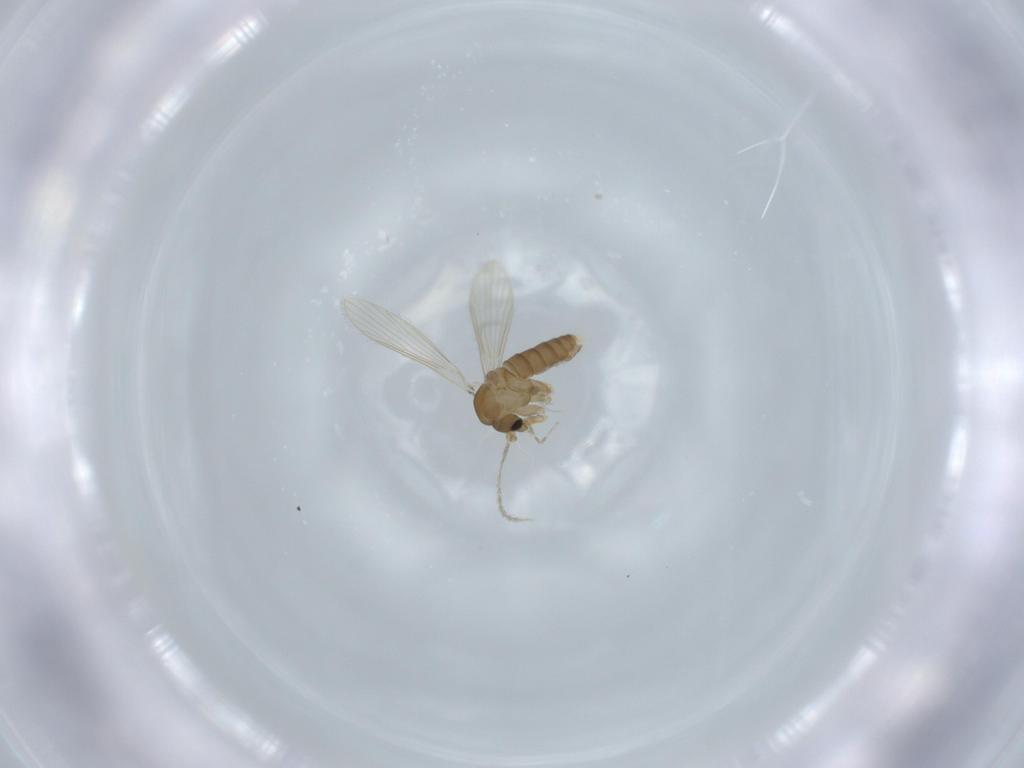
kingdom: Animalia
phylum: Arthropoda
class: Insecta
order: Diptera
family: Psychodidae
